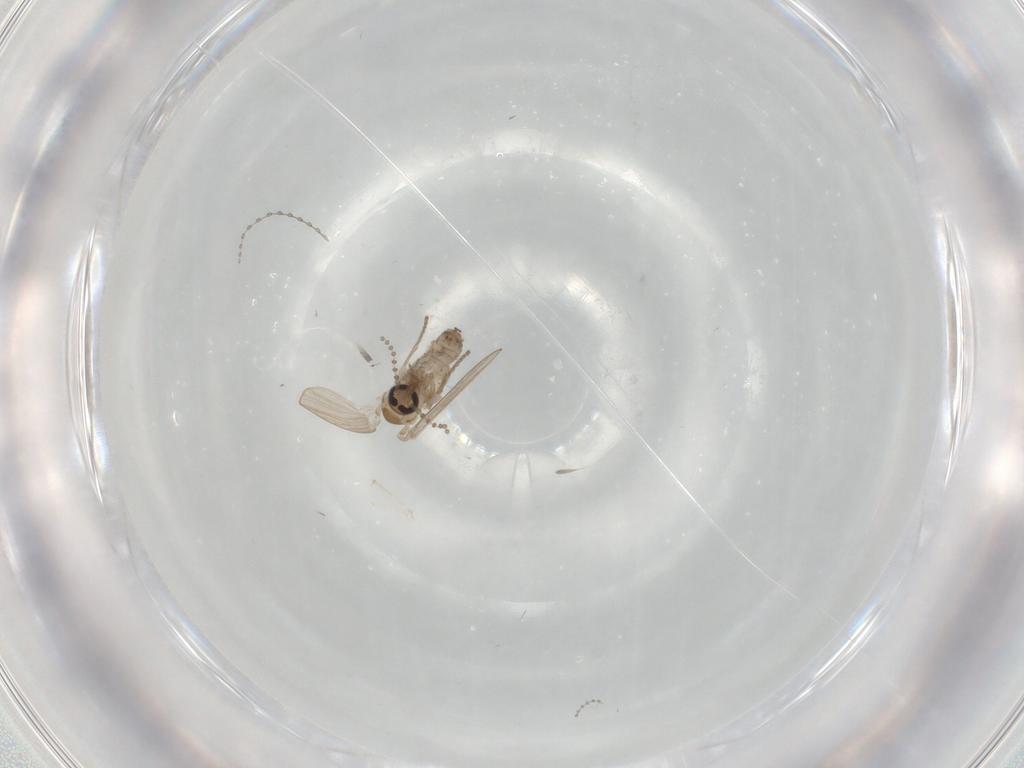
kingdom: Animalia
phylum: Arthropoda
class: Insecta
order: Diptera
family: Psychodidae
